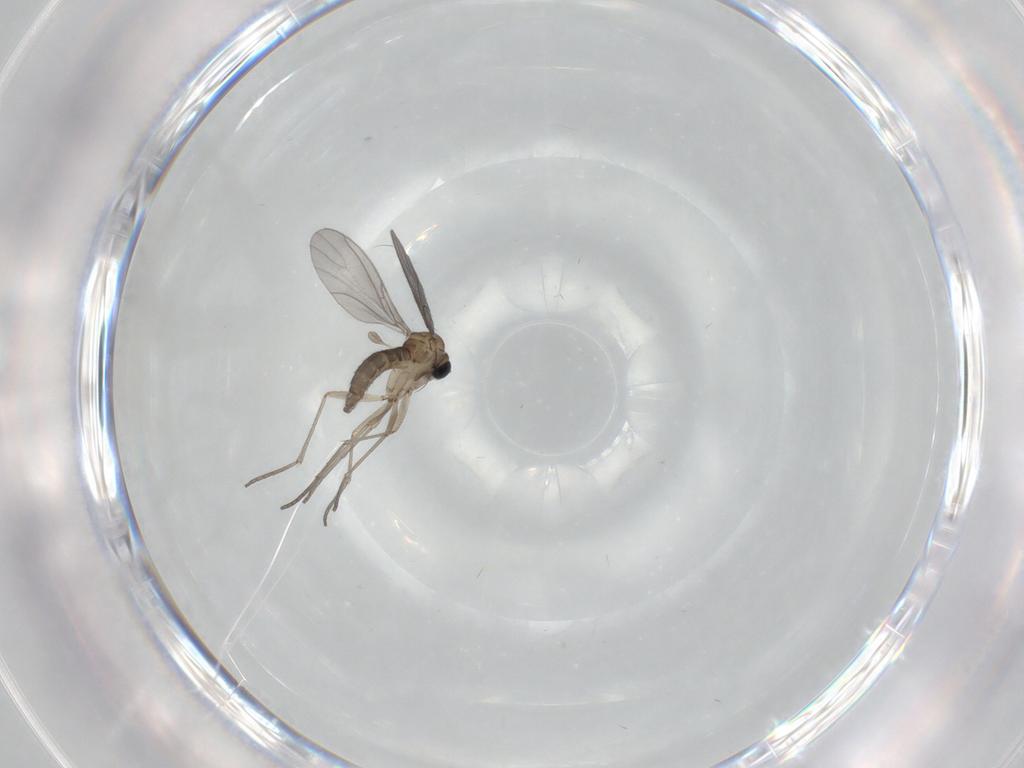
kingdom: Animalia
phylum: Arthropoda
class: Insecta
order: Diptera
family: Sciaridae
